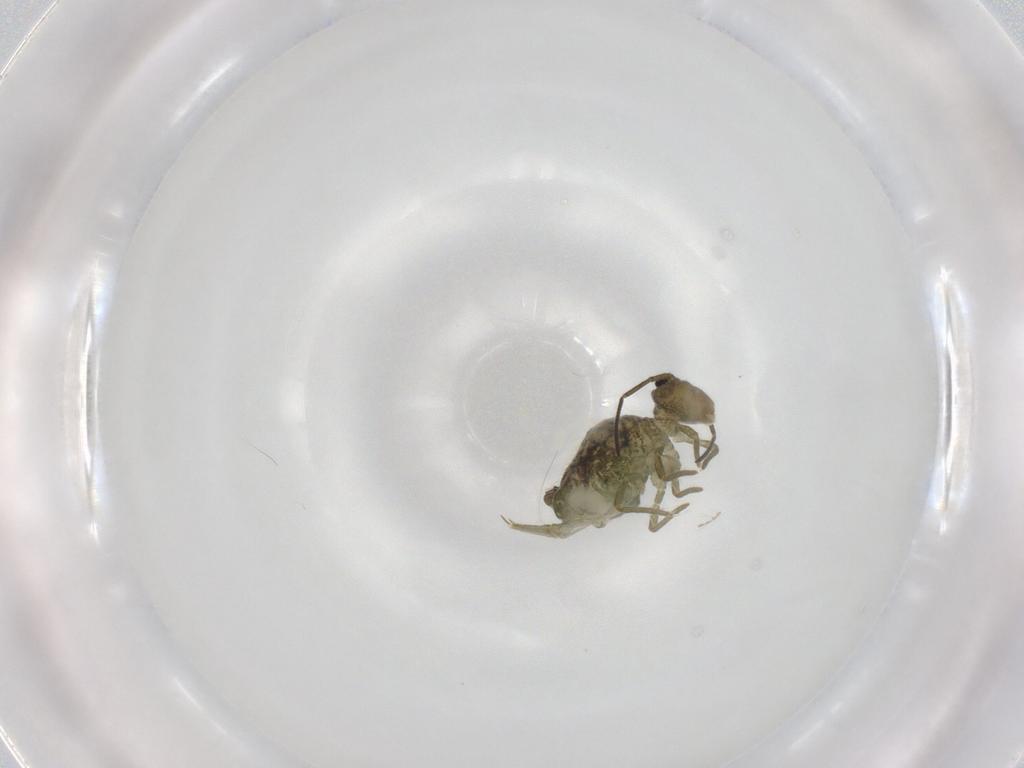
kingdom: Animalia
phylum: Arthropoda
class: Collembola
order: Symphypleona
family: Sminthuridae
